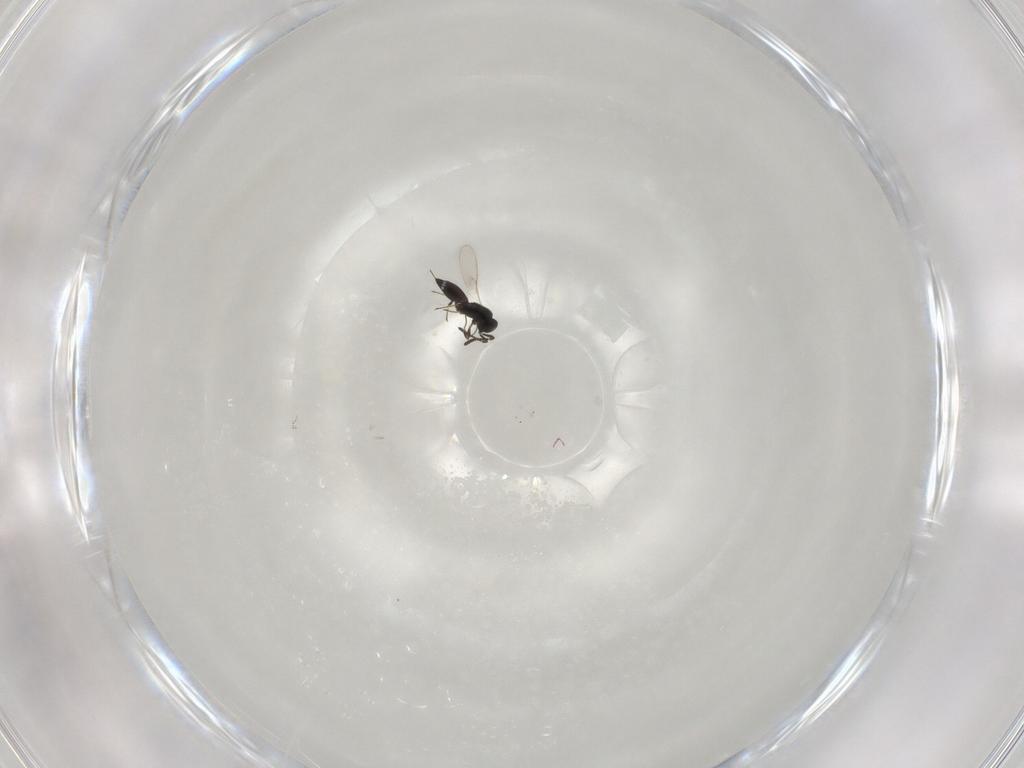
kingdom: Animalia
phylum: Arthropoda
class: Insecta
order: Hymenoptera
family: Scelionidae
